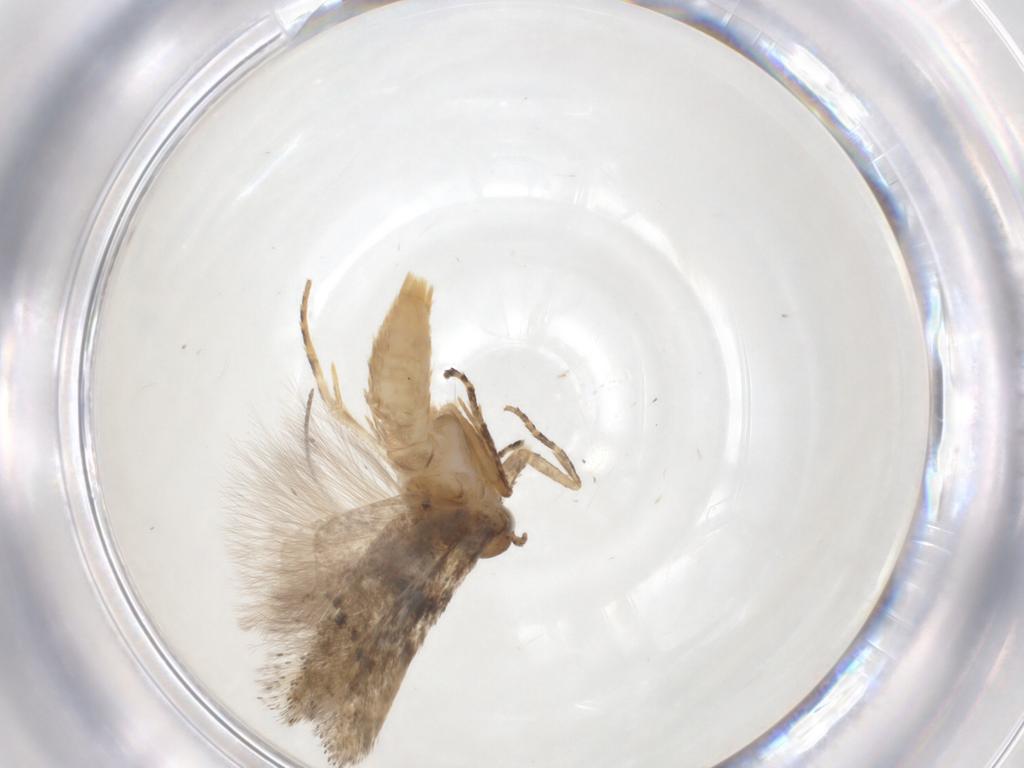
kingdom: Animalia
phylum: Arthropoda
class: Insecta
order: Lepidoptera
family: Gelechiidae
